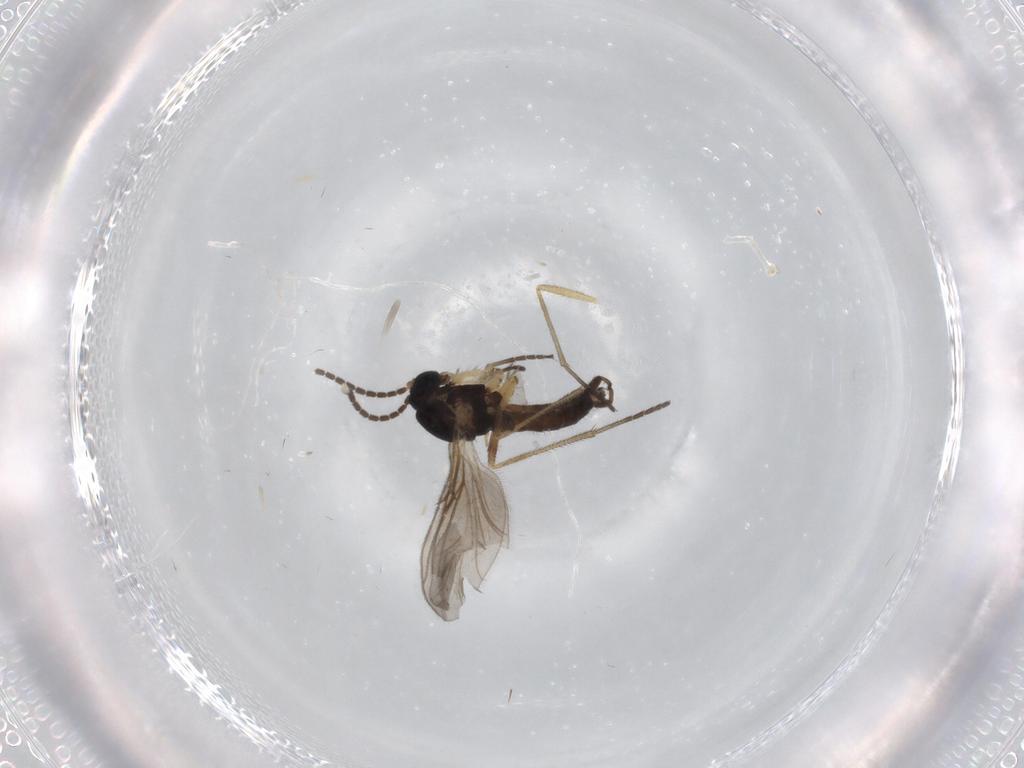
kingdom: Animalia
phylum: Arthropoda
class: Insecta
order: Diptera
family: Sciaridae
